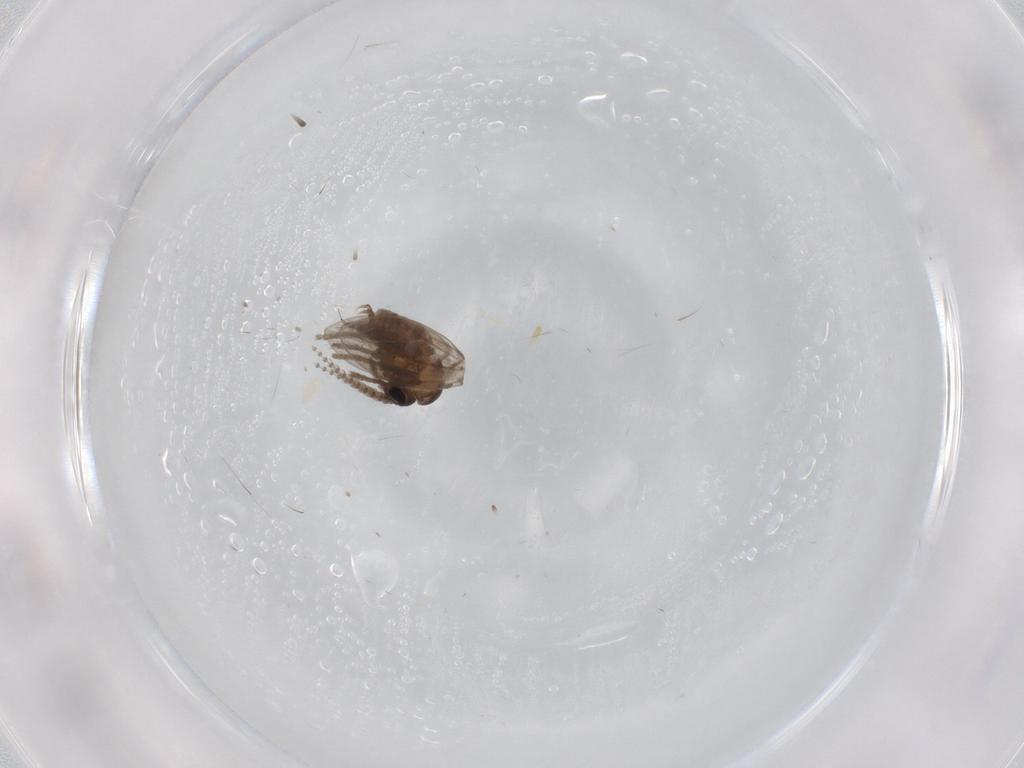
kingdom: Animalia
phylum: Arthropoda
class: Insecta
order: Diptera
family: Psychodidae
